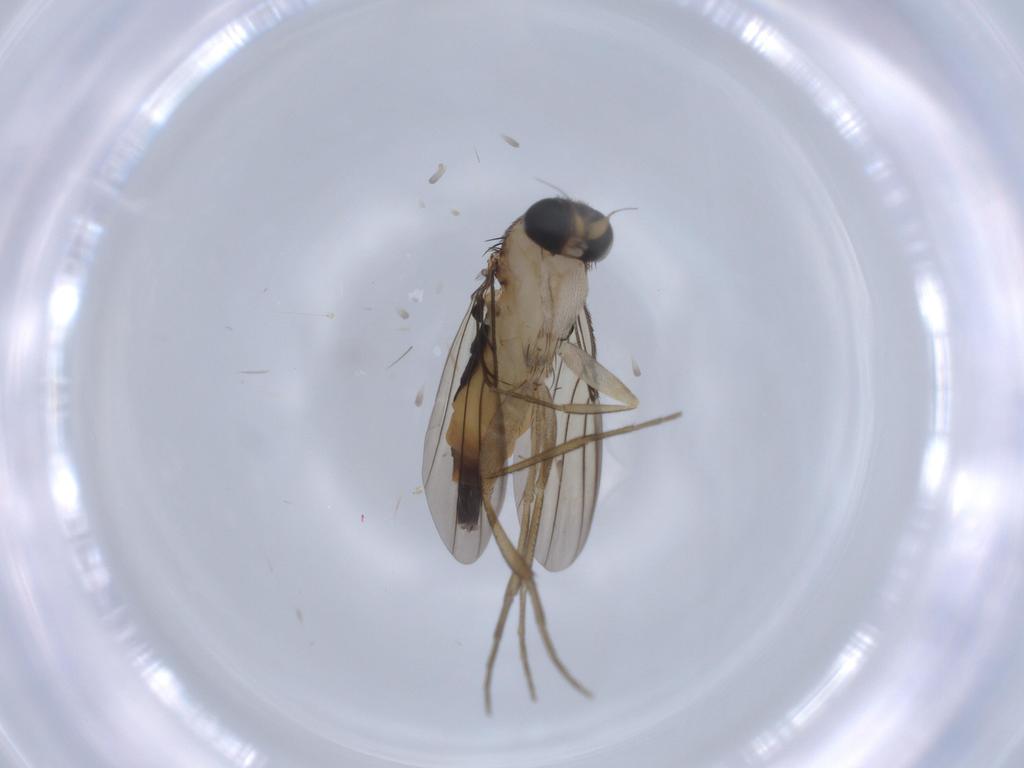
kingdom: Animalia
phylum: Arthropoda
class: Insecta
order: Diptera
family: Phoridae
